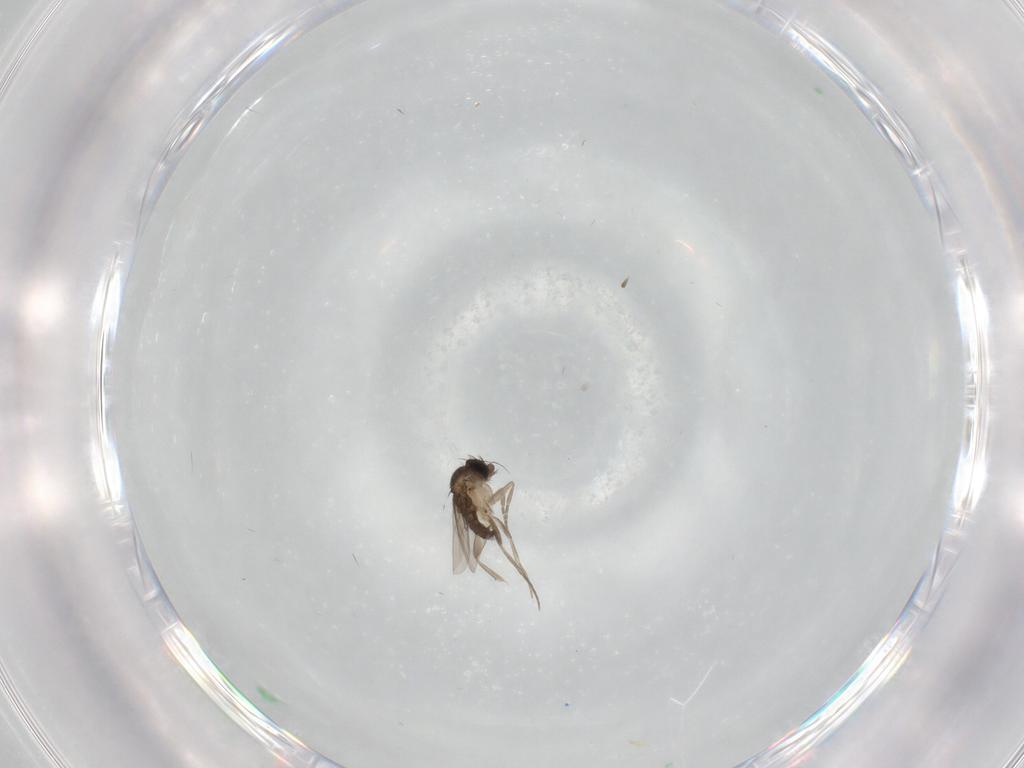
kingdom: Animalia
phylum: Arthropoda
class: Insecta
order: Diptera
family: Phoridae
